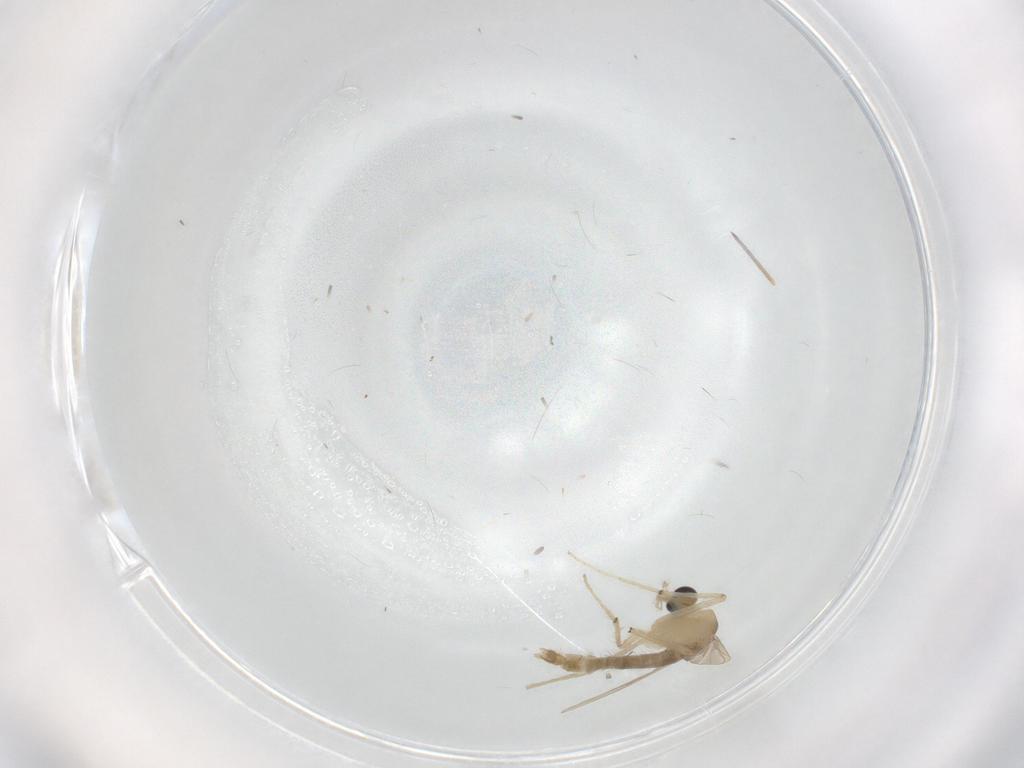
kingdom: Animalia
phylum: Arthropoda
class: Insecta
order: Diptera
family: Chironomidae
